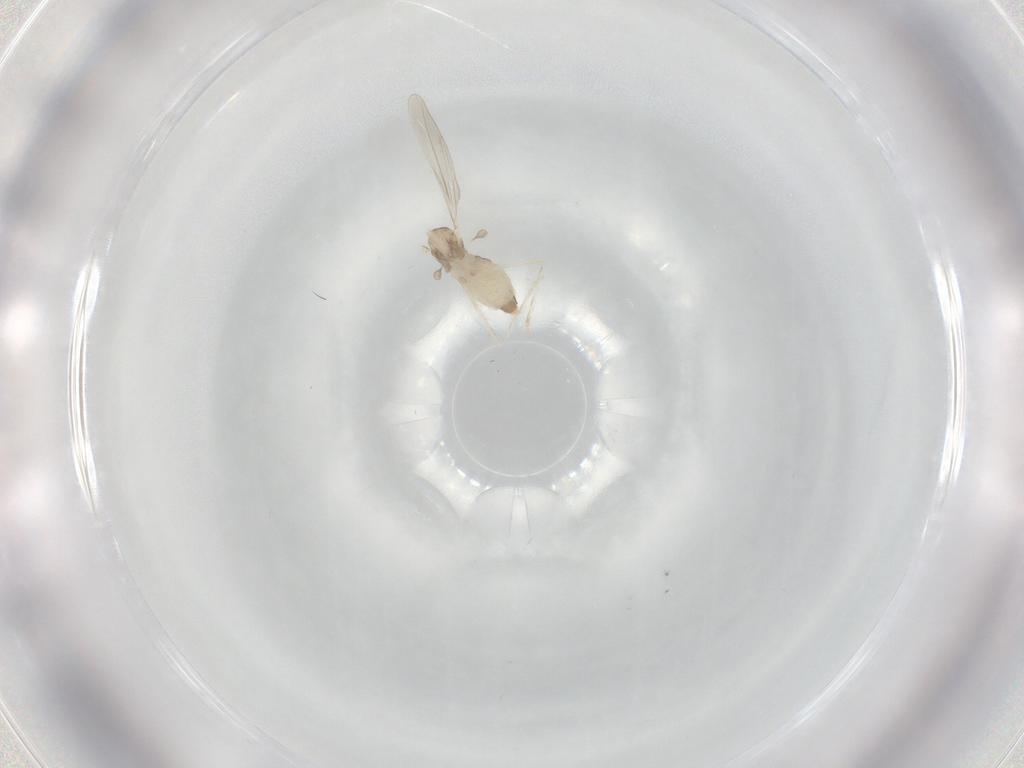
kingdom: Animalia
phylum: Arthropoda
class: Insecta
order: Diptera
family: Cecidomyiidae
